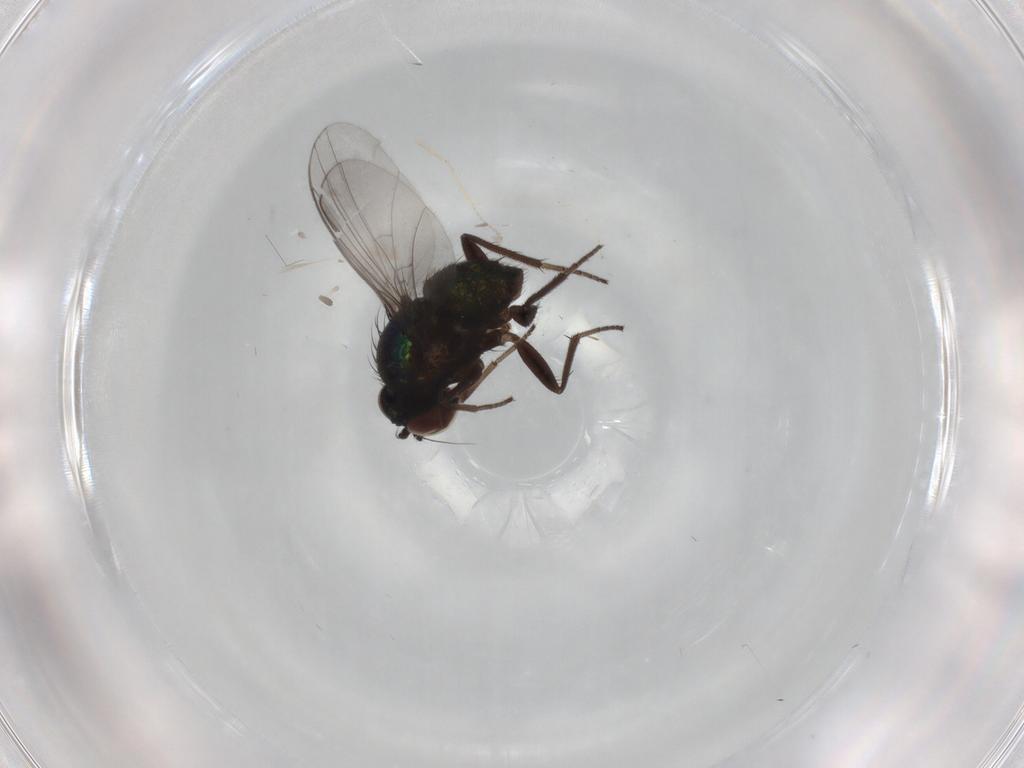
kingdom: Animalia
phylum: Arthropoda
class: Insecta
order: Diptera
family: Dolichopodidae
